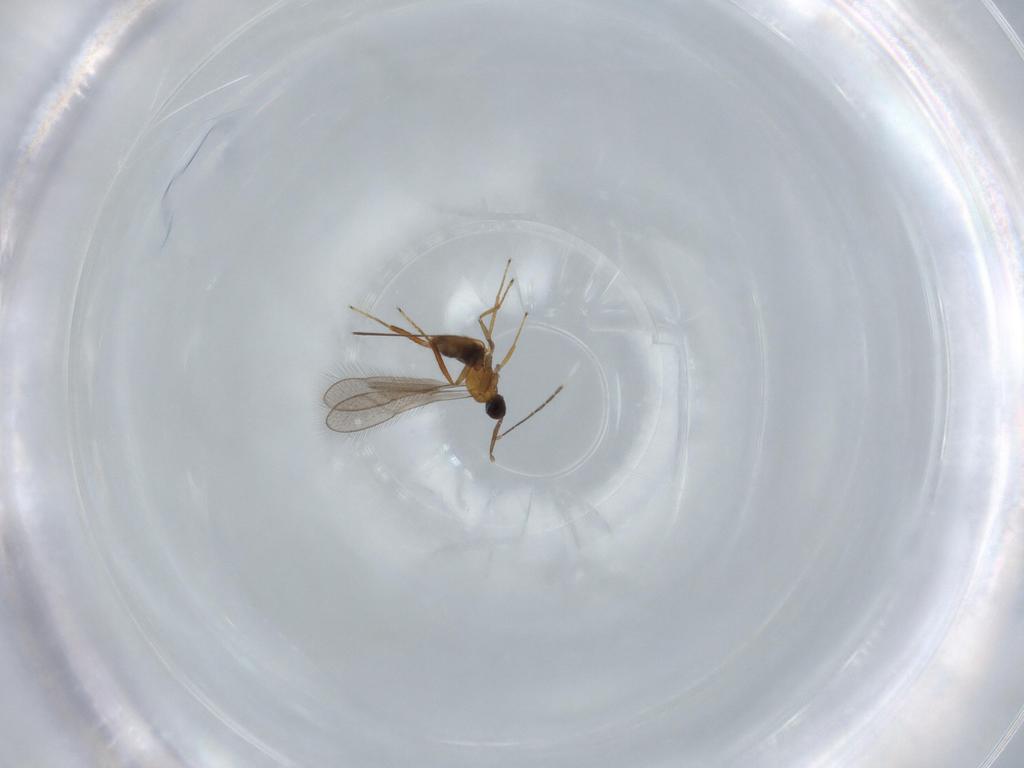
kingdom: Animalia
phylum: Arthropoda
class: Insecta
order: Hymenoptera
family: Mymaridae
